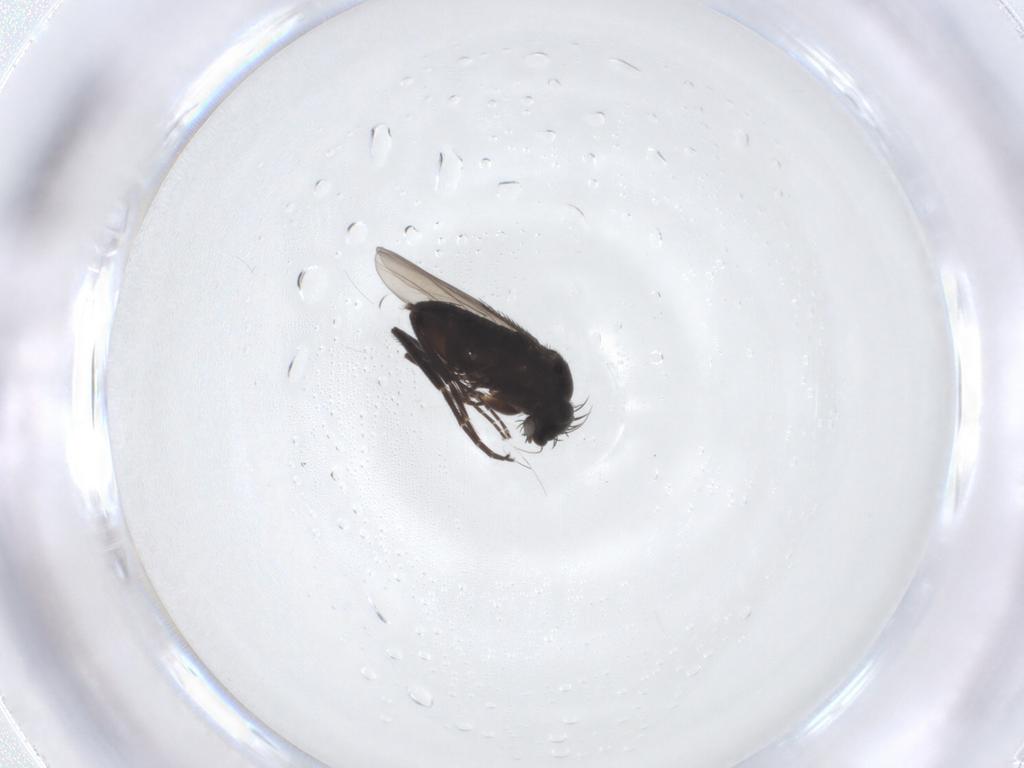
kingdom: Animalia
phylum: Arthropoda
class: Insecta
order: Diptera
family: Phoridae
